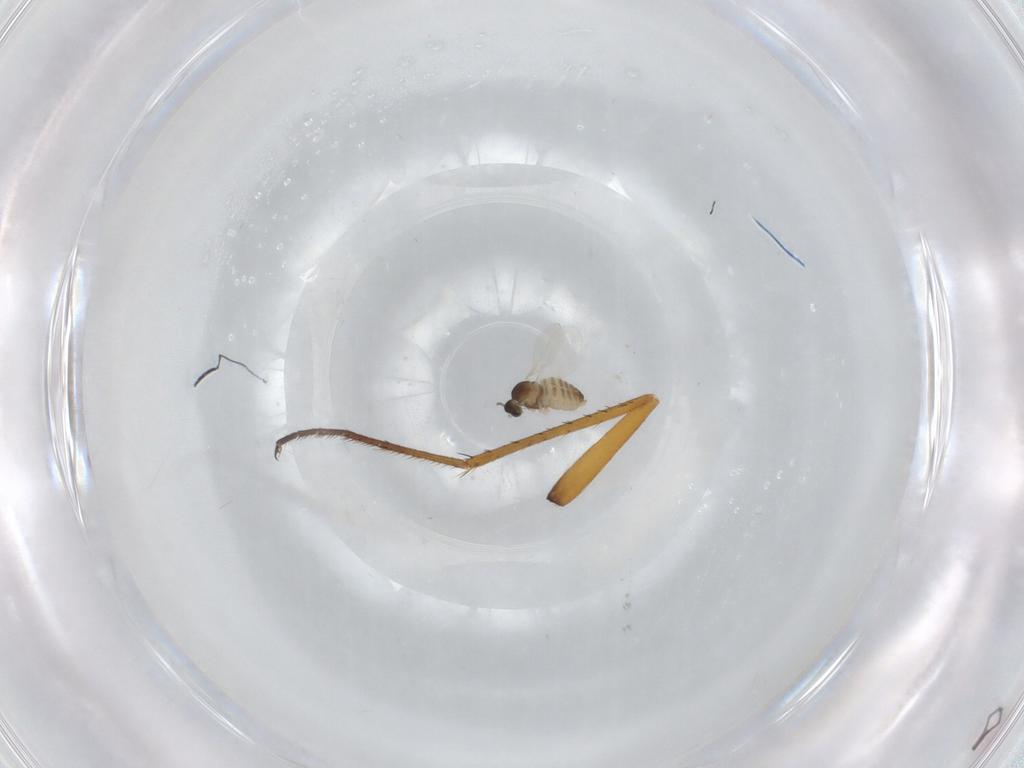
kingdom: Animalia
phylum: Arthropoda
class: Insecta
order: Diptera
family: Bombyliidae
